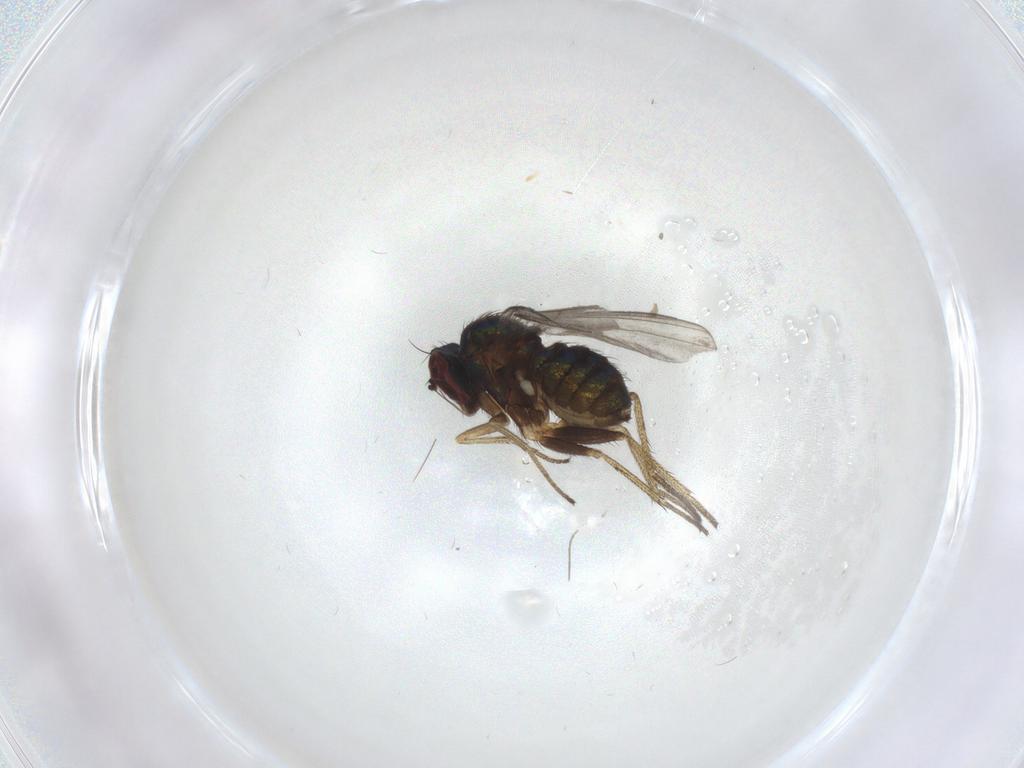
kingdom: Animalia
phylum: Arthropoda
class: Insecta
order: Diptera
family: Dolichopodidae
